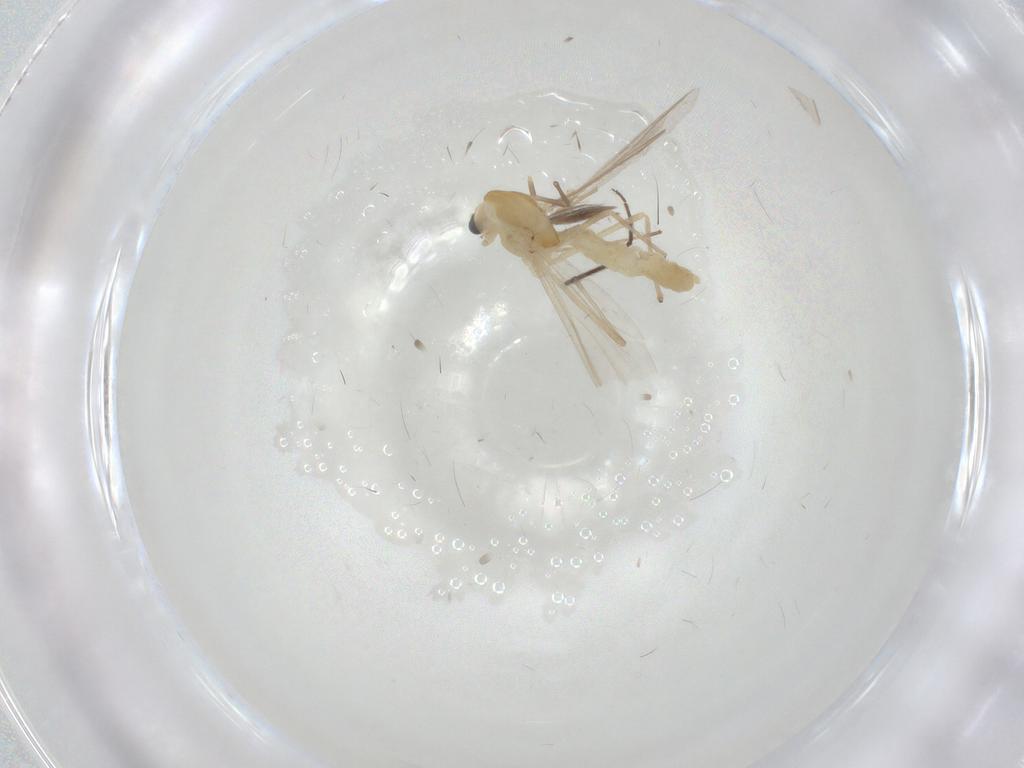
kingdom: Animalia
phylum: Arthropoda
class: Insecta
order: Diptera
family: Ceratopogonidae
